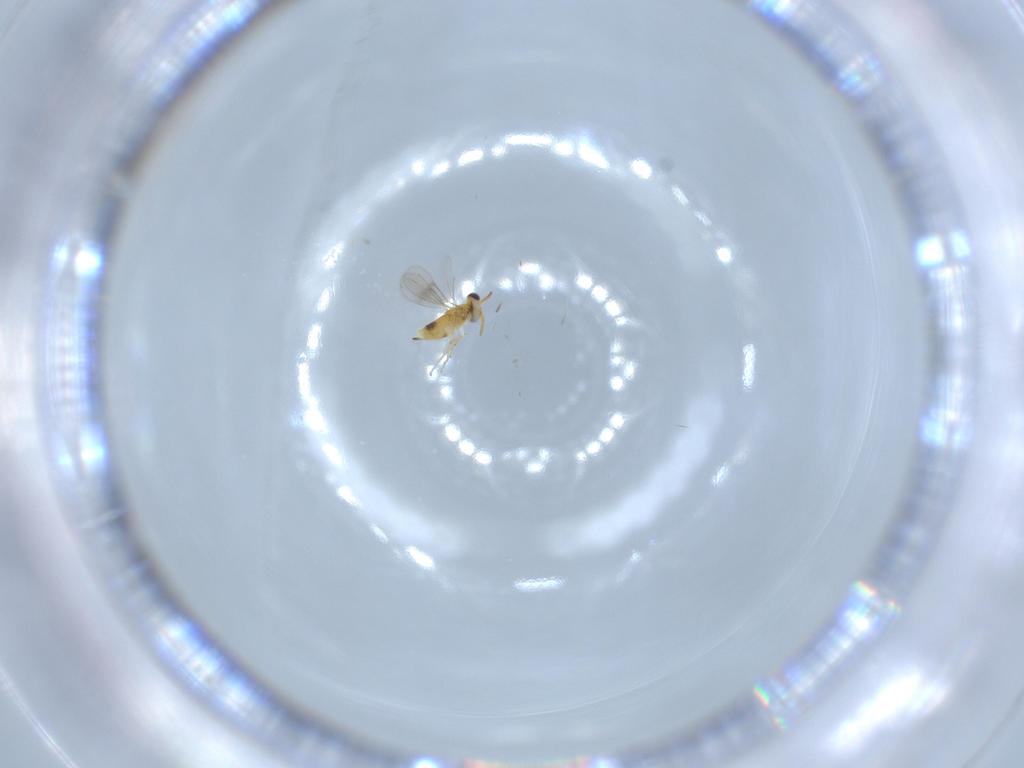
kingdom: Animalia
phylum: Arthropoda
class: Insecta
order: Hymenoptera
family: Aphelinidae
